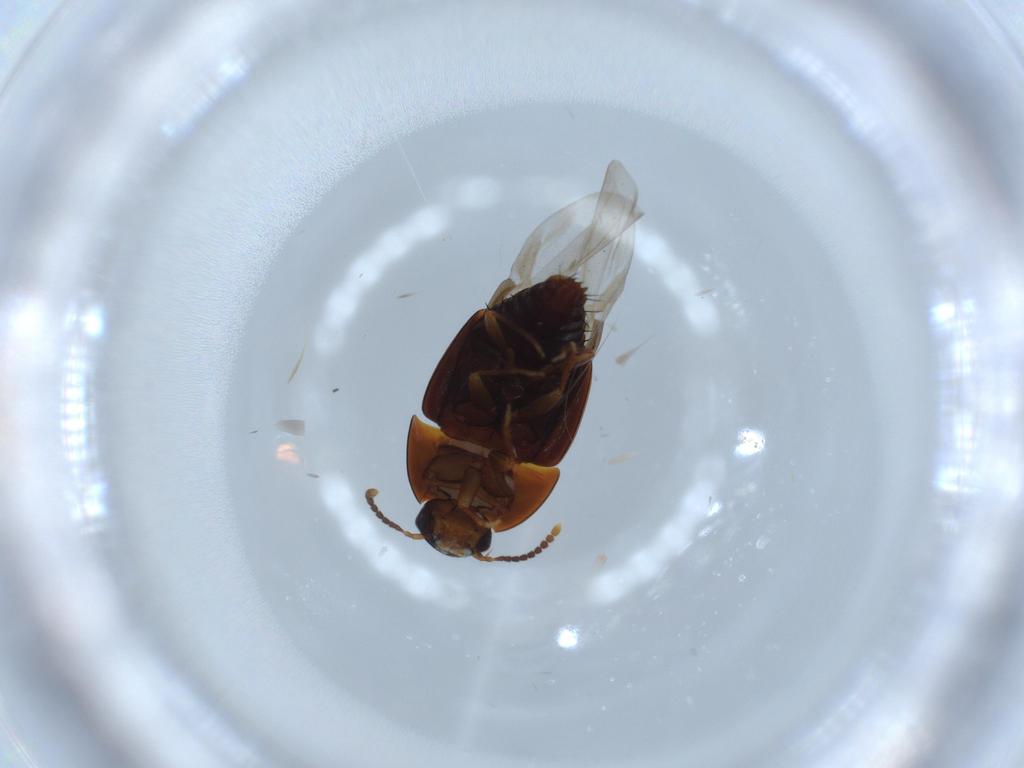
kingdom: Animalia
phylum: Arthropoda
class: Insecta
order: Coleoptera
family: Staphylinidae
